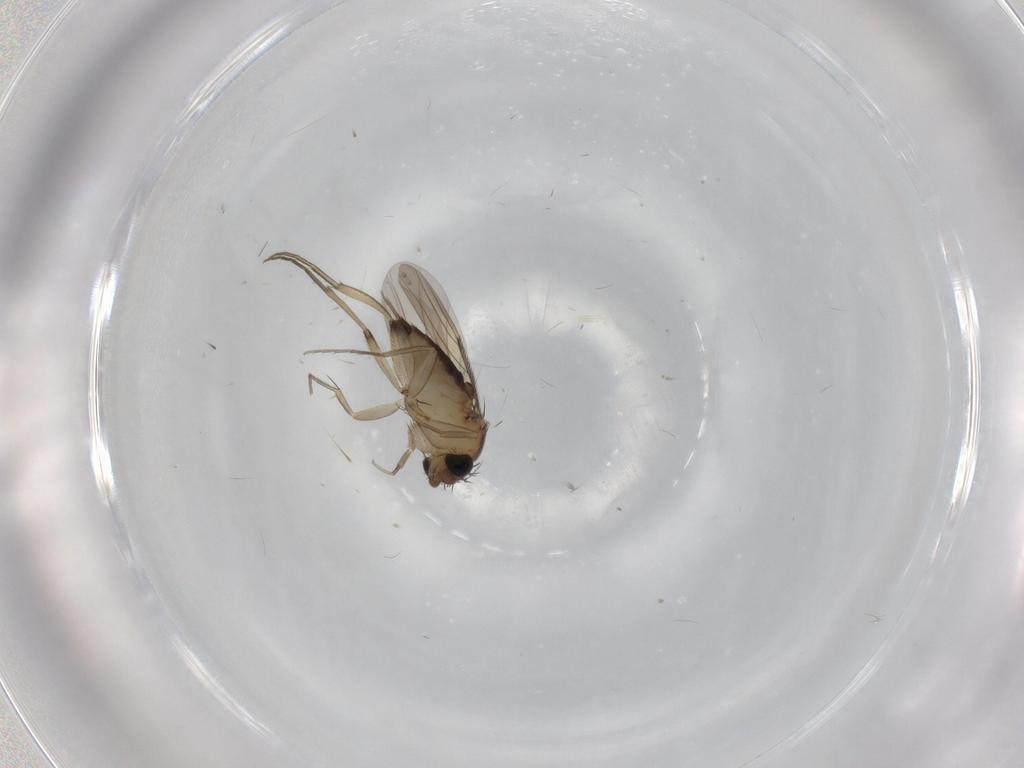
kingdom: Animalia
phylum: Arthropoda
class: Insecta
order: Diptera
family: Phoridae
